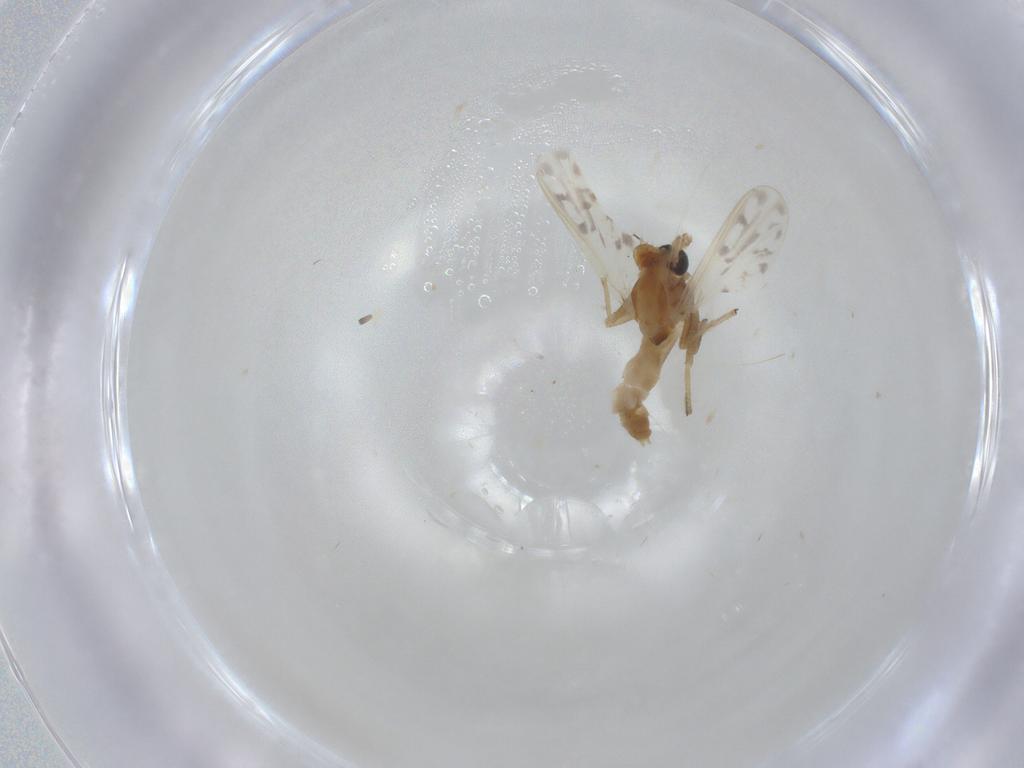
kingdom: Animalia
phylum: Arthropoda
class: Insecta
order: Diptera
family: Chironomidae
